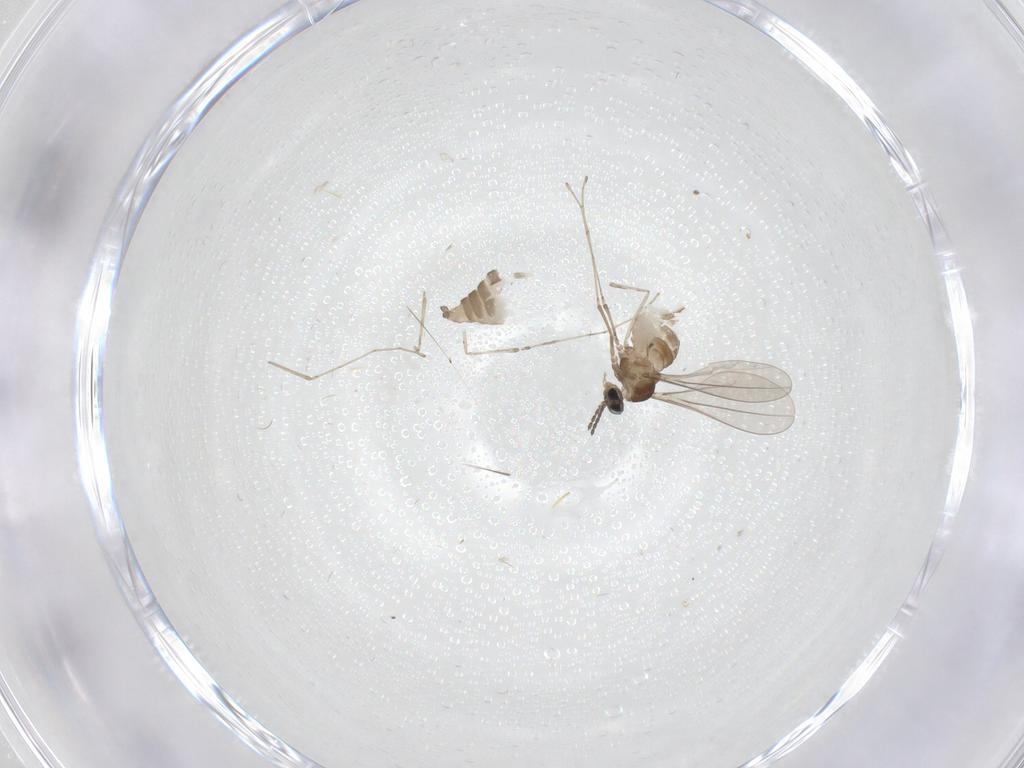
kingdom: Animalia
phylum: Arthropoda
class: Insecta
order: Diptera
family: Cecidomyiidae
